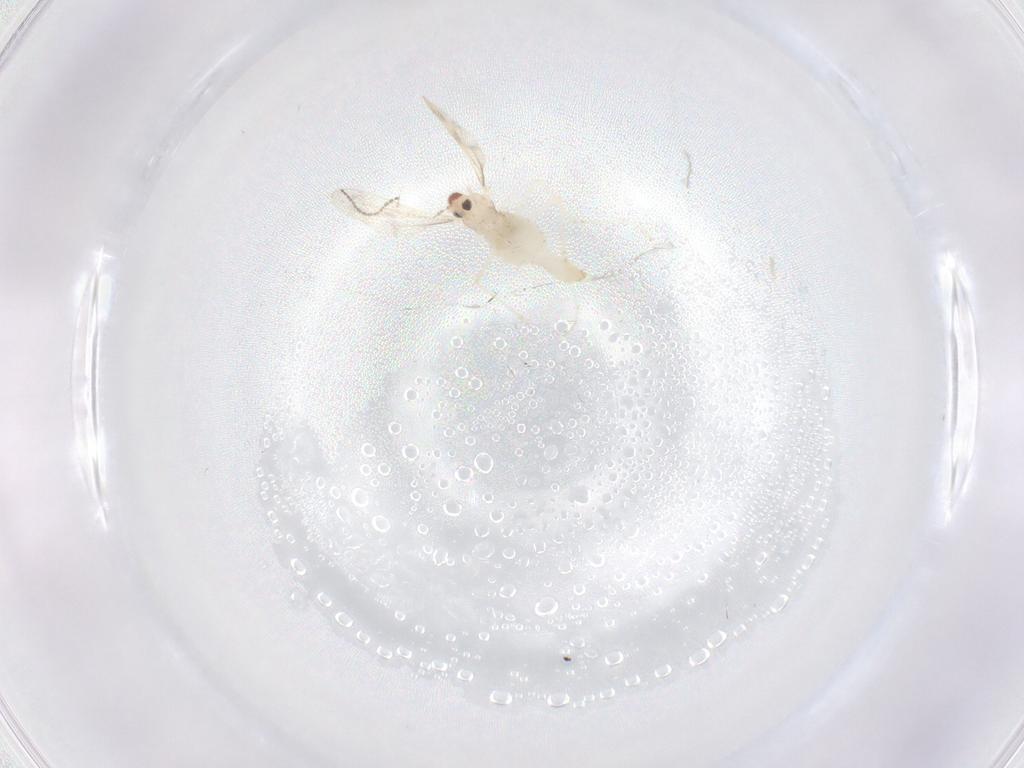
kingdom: Animalia
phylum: Arthropoda
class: Insecta
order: Diptera
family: Cecidomyiidae
